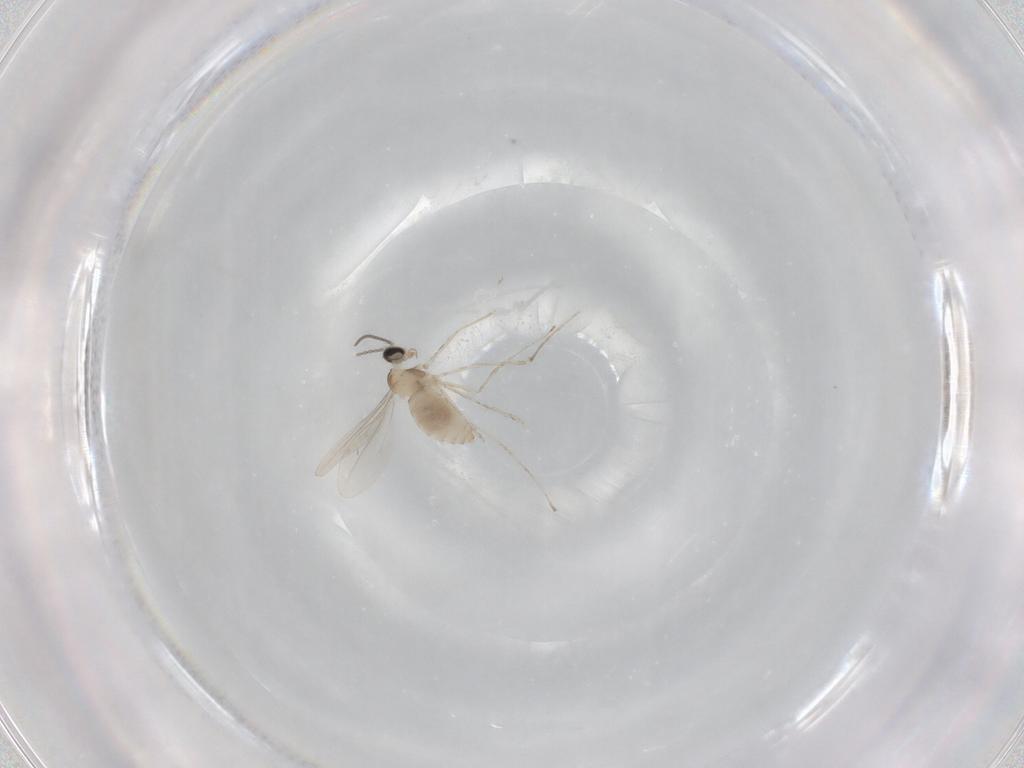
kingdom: Animalia
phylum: Arthropoda
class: Insecta
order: Diptera
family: Cecidomyiidae
